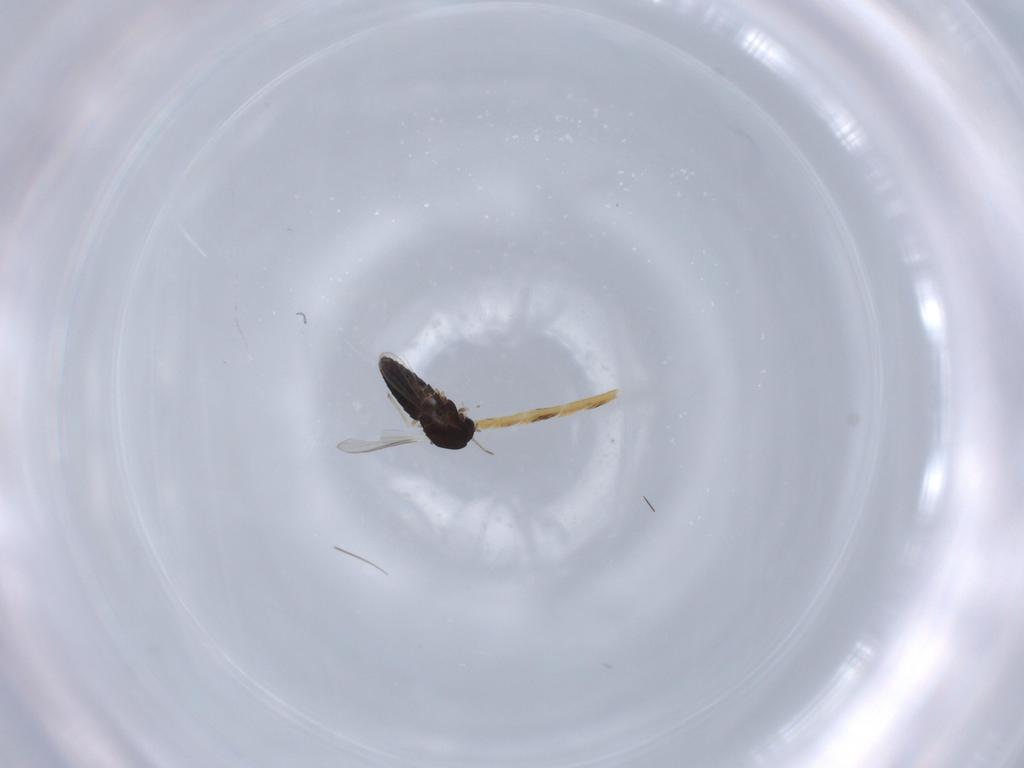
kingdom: Animalia
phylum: Arthropoda
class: Insecta
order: Diptera
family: Chironomidae
